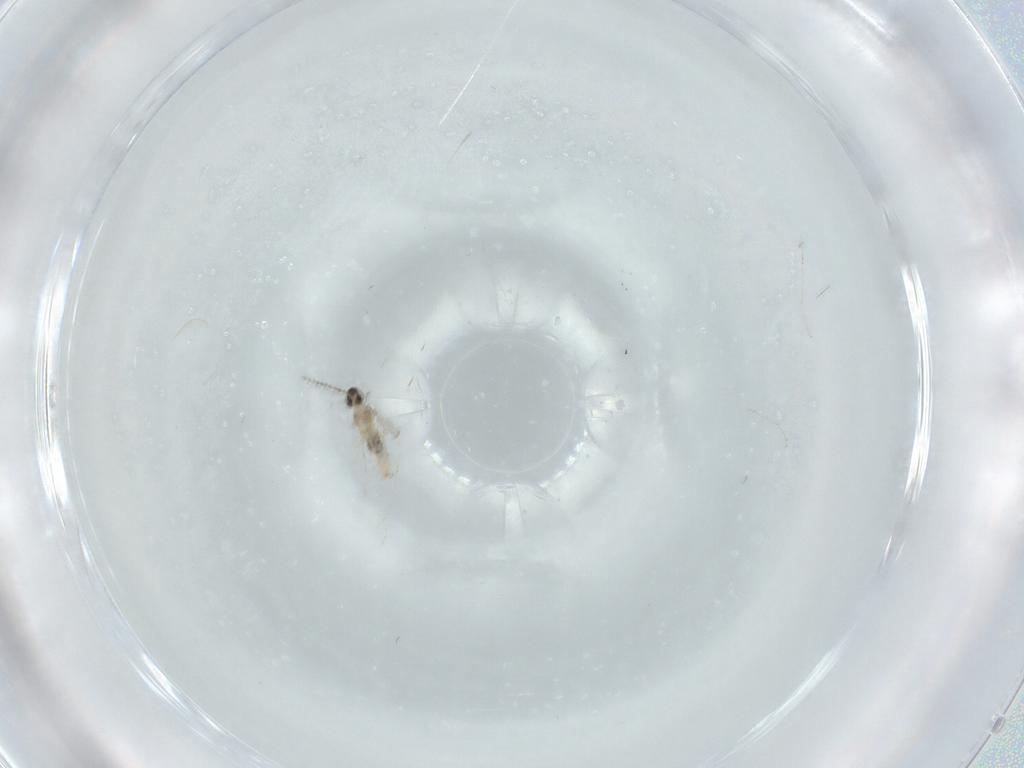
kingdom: Animalia
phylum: Arthropoda
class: Insecta
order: Diptera
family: Cecidomyiidae
